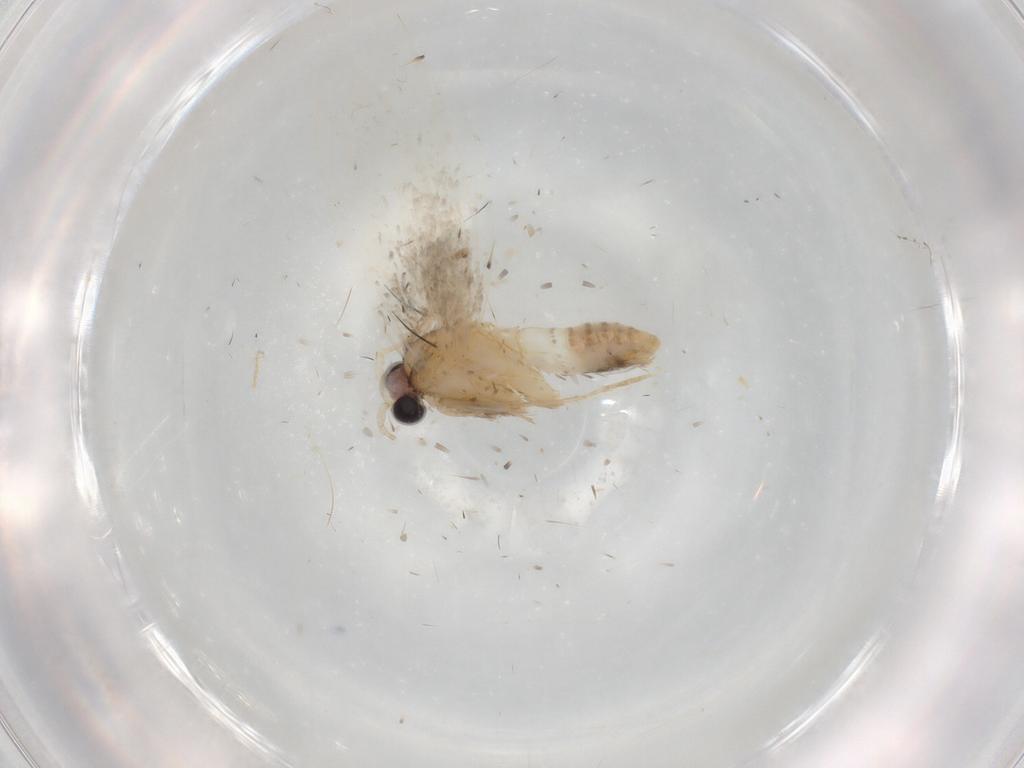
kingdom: Animalia
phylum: Arthropoda
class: Insecta
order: Lepidoptera
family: Psychidae
